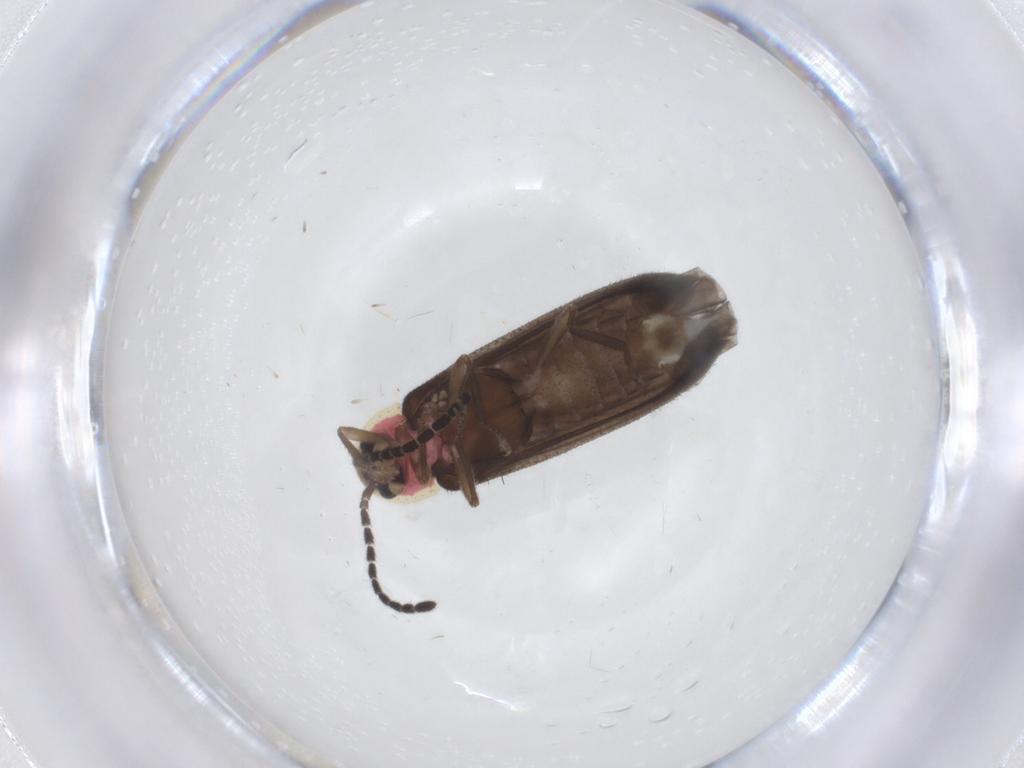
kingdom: Animalia
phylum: Arthropoda
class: Insecta
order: Coleoptera
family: Lampyridae
